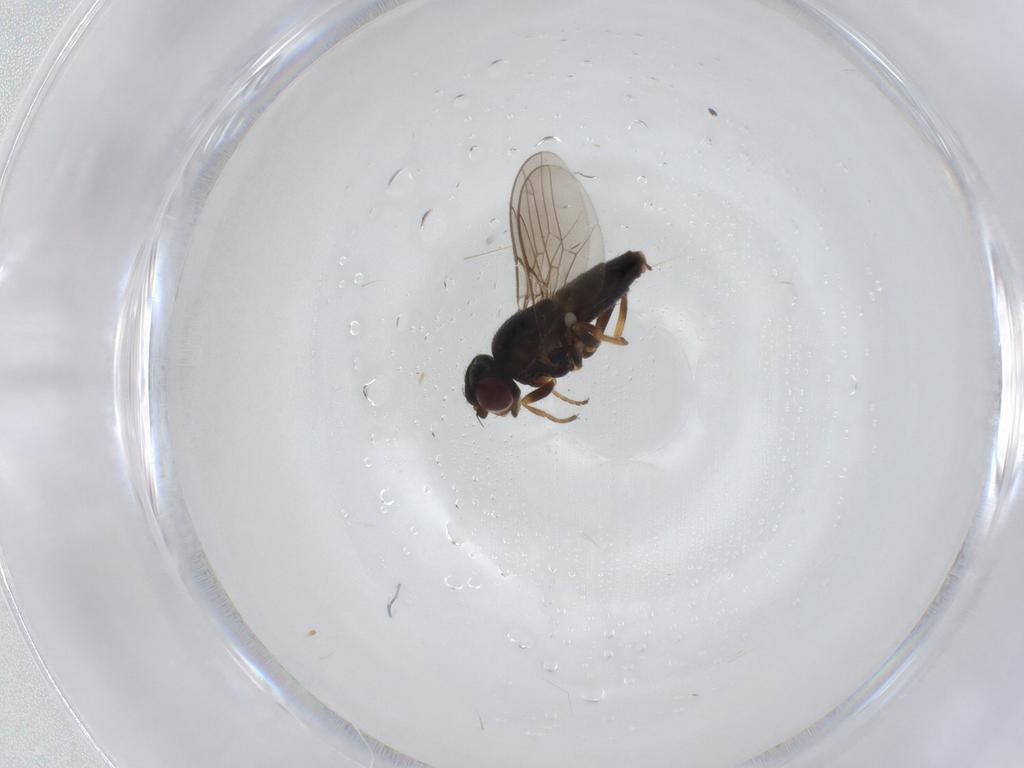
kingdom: Animalia
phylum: Arthropoda
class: Insecta
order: Diptera
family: Chloropidae
